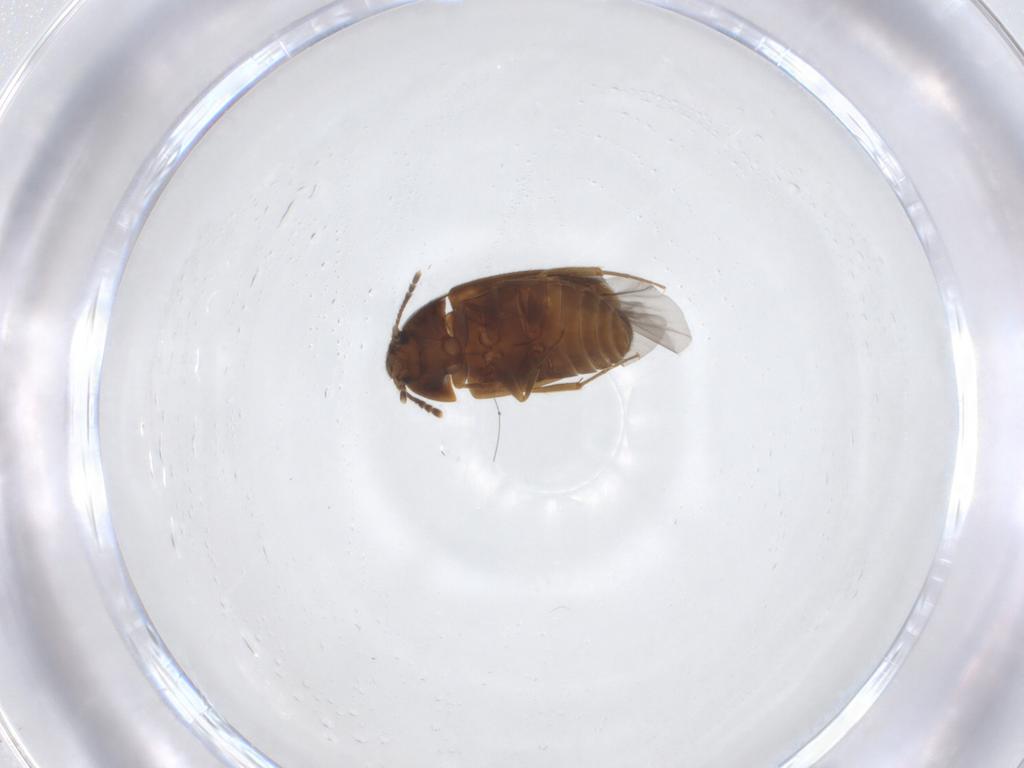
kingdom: Animalia
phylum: Arthropoda
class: Insecta
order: Coleoptera
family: Mycetophagidae
